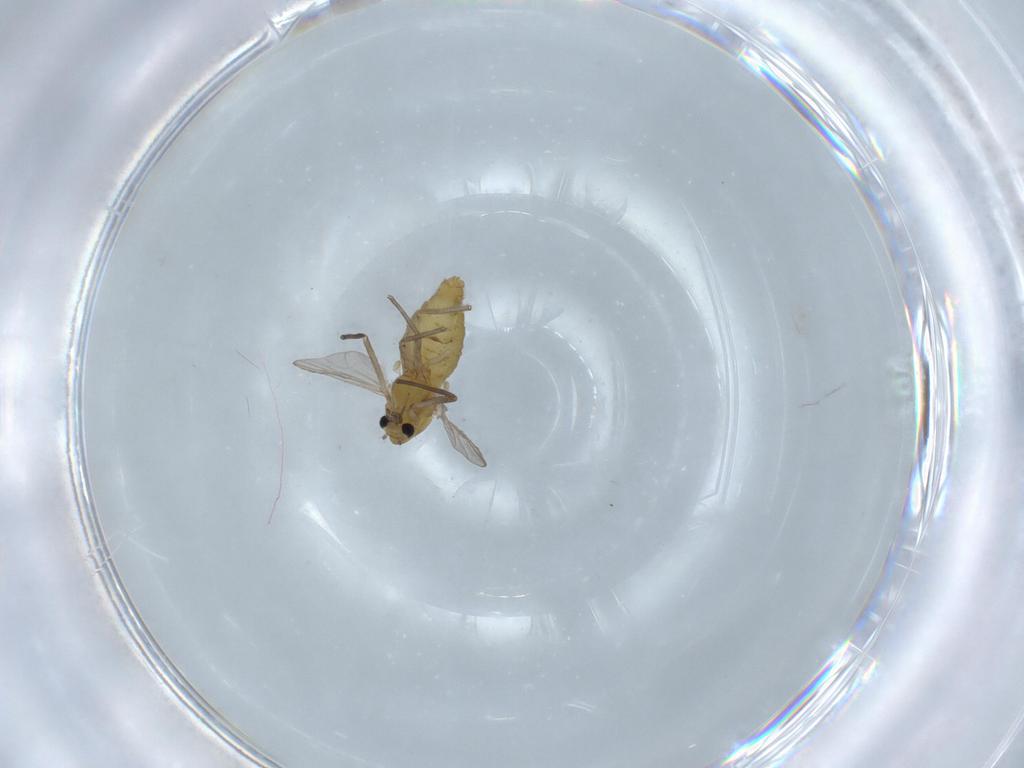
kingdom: Animalia
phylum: Arthropoda
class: Insecta
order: Diptera
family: Chironomidae
